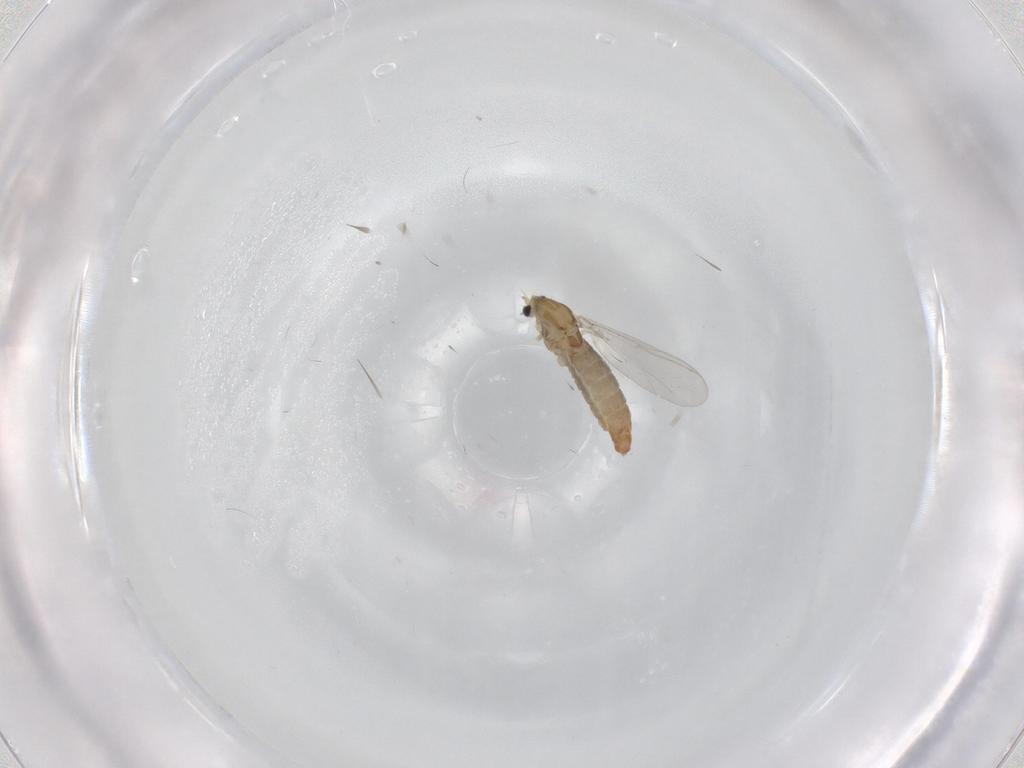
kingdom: Animalia
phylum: Arthropoda
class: Insecta
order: Diptera
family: Chironomidae
